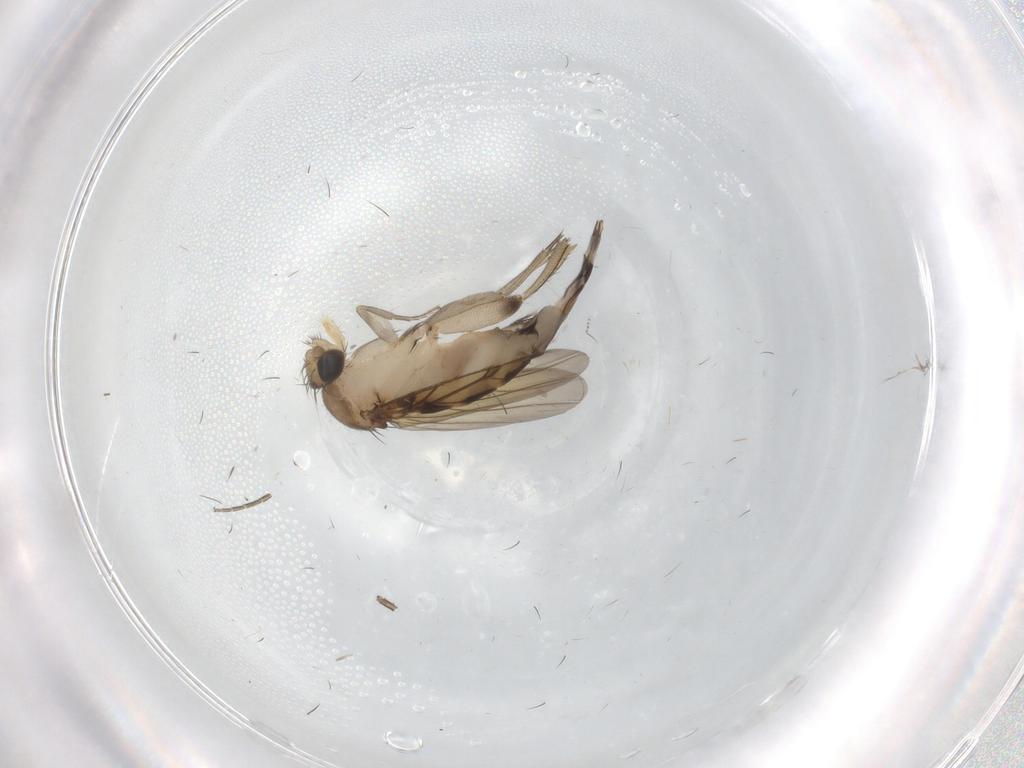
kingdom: Animalia
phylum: Arthropoda
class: Insecta
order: Diptera
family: Phoridae
